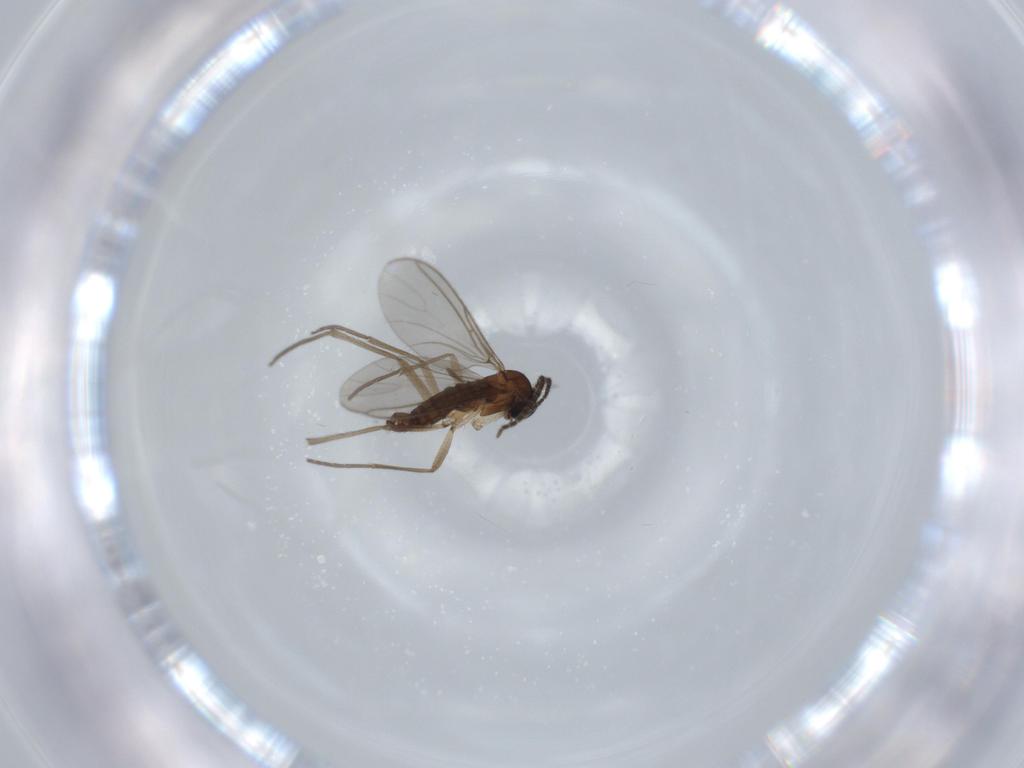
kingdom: Animalia
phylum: Arthropoda
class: Insecta
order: Diptera
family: Sciaridae
